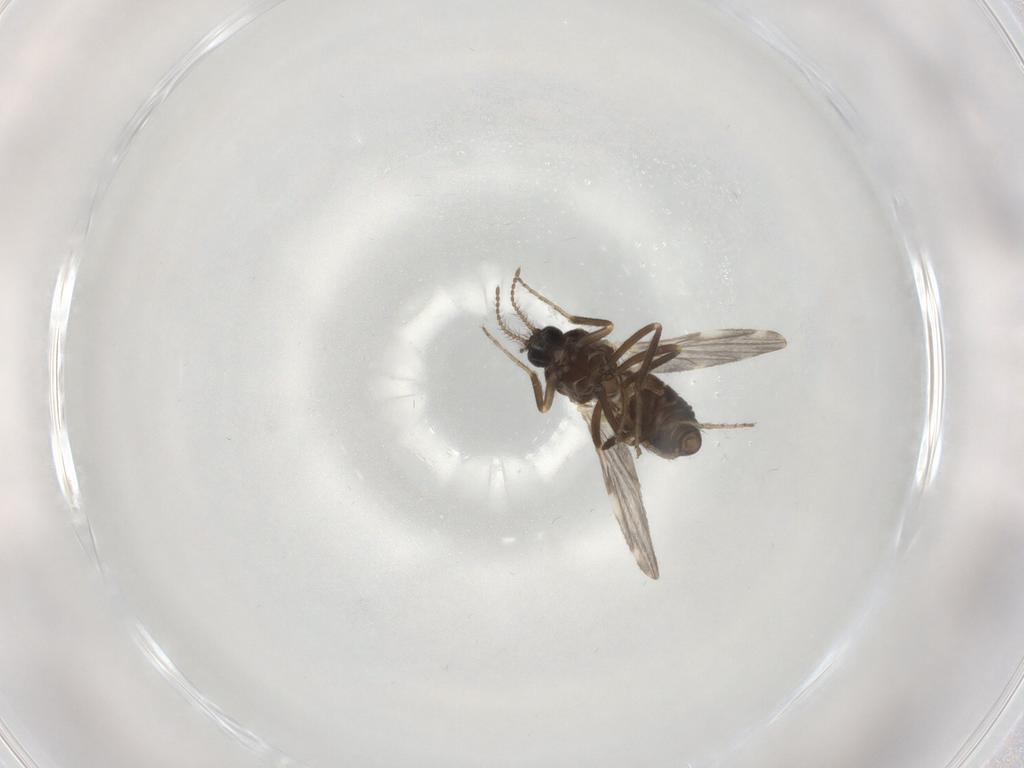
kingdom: Animalia
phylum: Arthropoda
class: Insecta
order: Diptera
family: Ceratopogonidae
